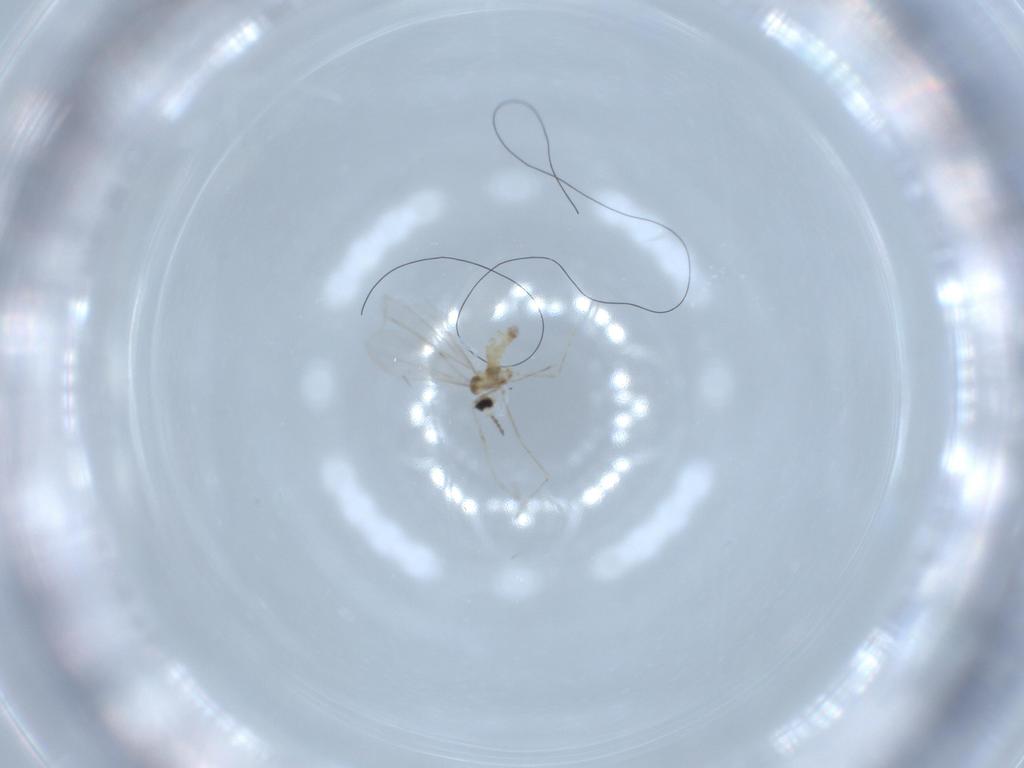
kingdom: Animalia
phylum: Arthropoda
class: Insecta
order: Diptera
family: Cecidomyiidae
